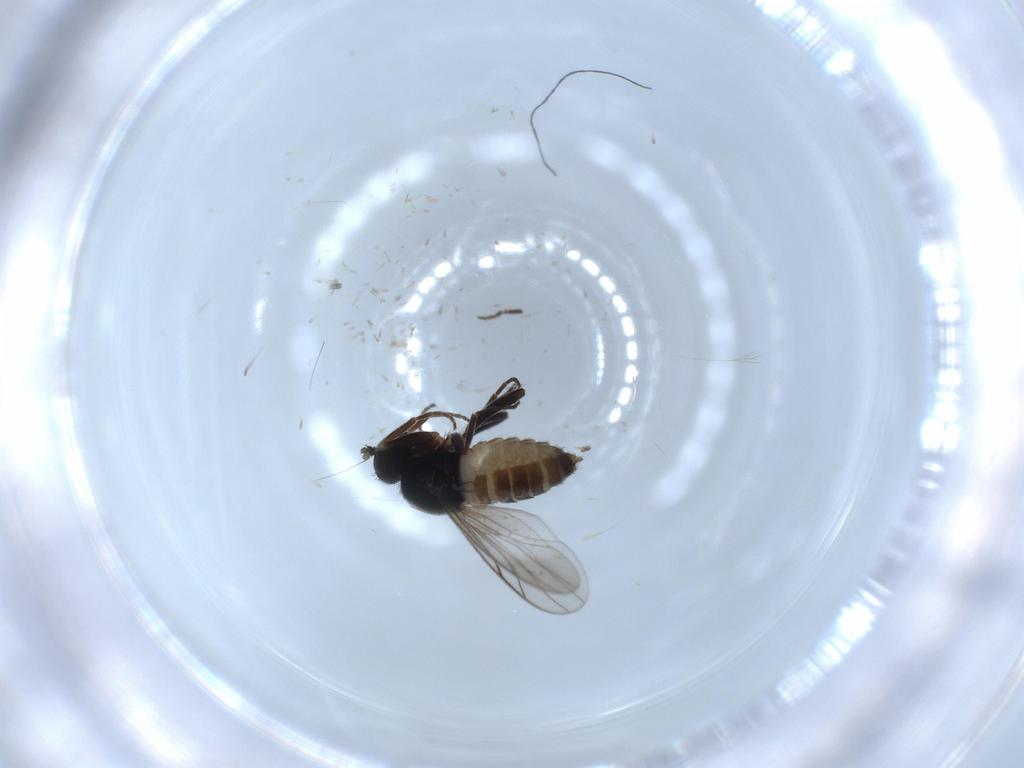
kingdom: Animalia
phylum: Arthropoda
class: Insecta
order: Diptera
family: Hybotidae
